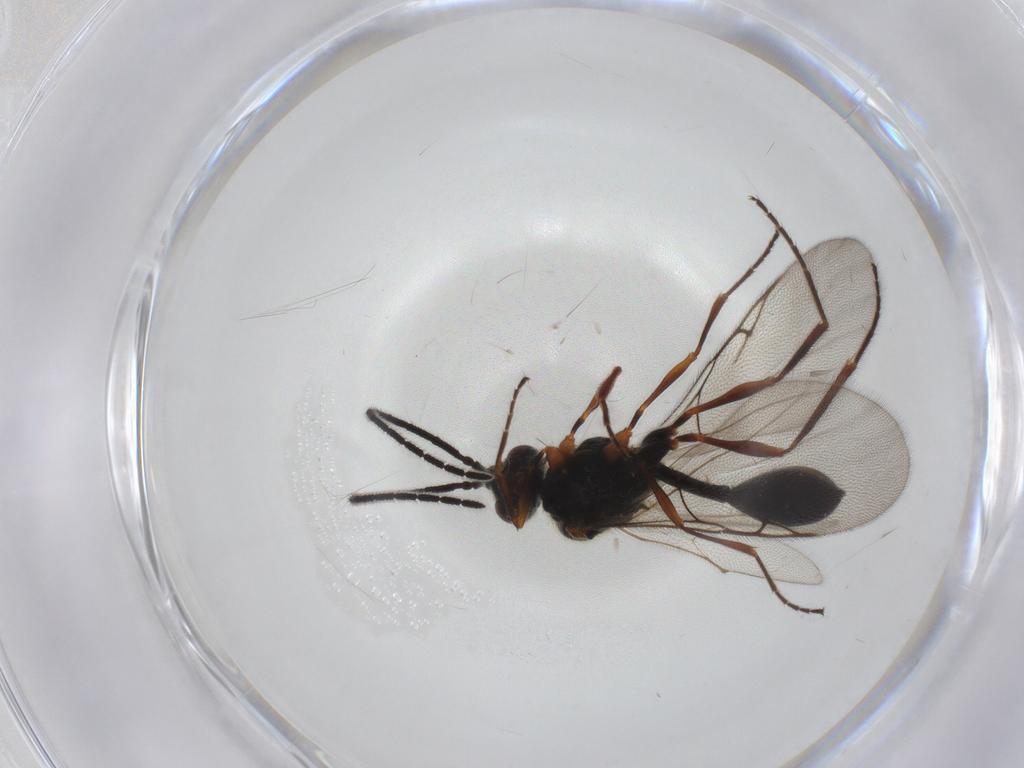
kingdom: Animalia
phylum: Arthropoda
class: Insecta
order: Hymenoptera
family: Diapriidae
